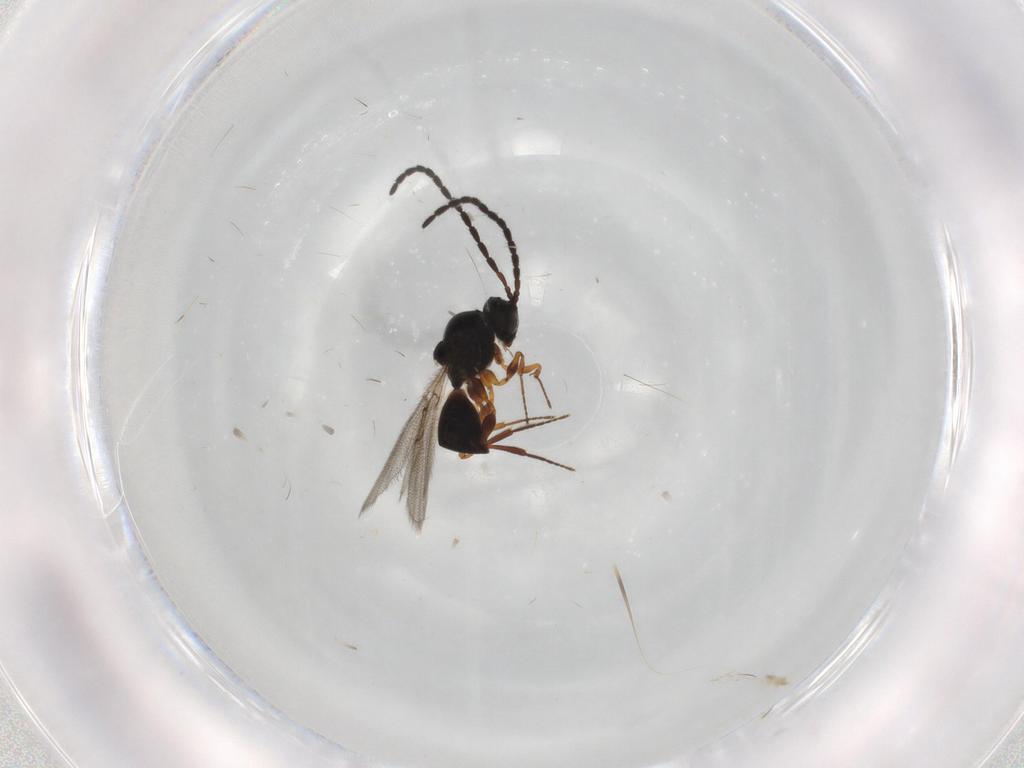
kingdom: Animalia
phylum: Arthropoda
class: Insecta
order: Hymenoptera
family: Figitidae
